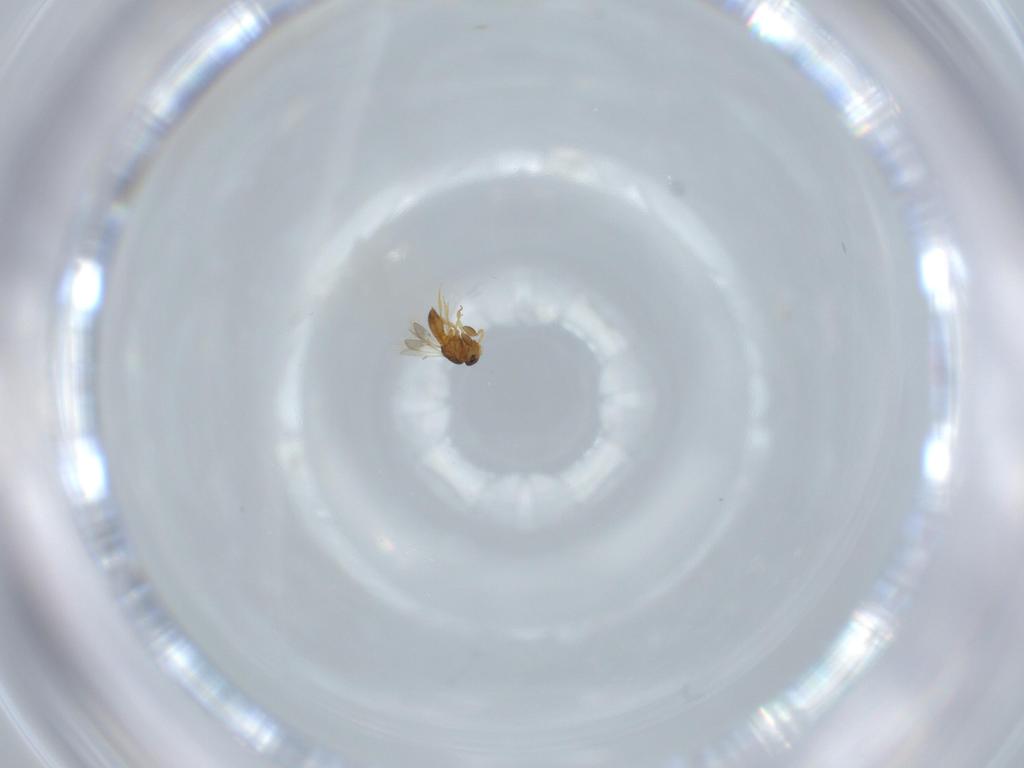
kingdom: Animalia
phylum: Arthropoda
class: Insecta
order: Hymenoptera
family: Scelionidae
